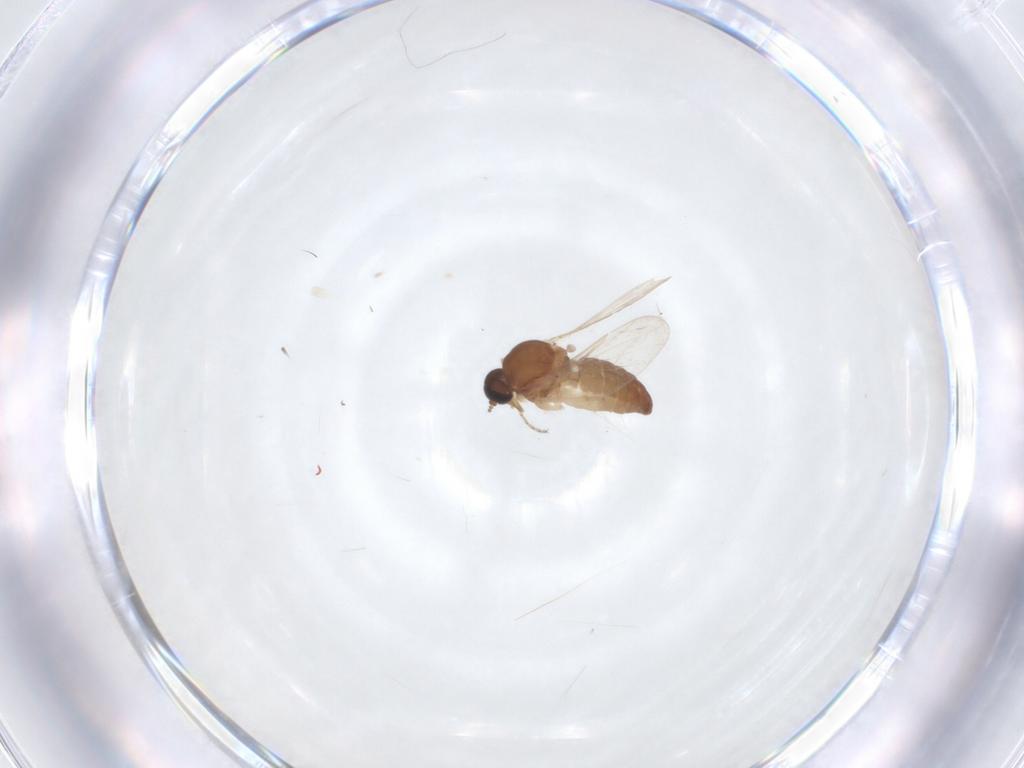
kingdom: Animalia
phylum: Arthropoda
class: Insecta
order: Diptera
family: Ceratopogonidae
